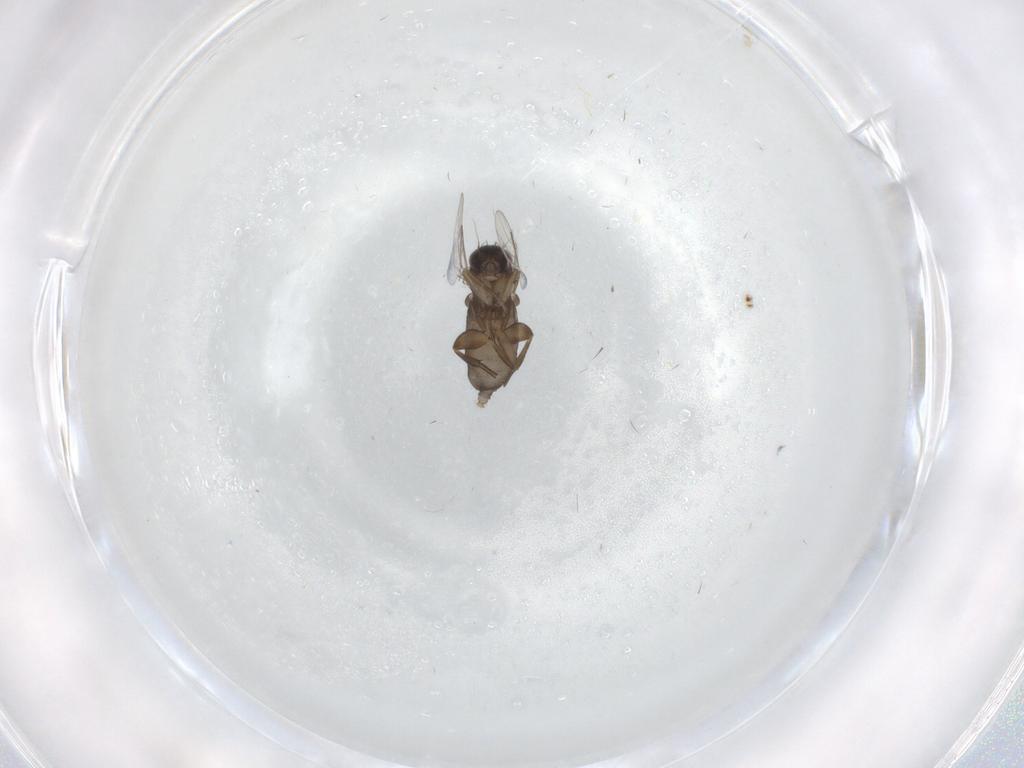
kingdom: Animalia
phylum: Arthropoda
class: Insecta
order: Diptera
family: Phoridae
